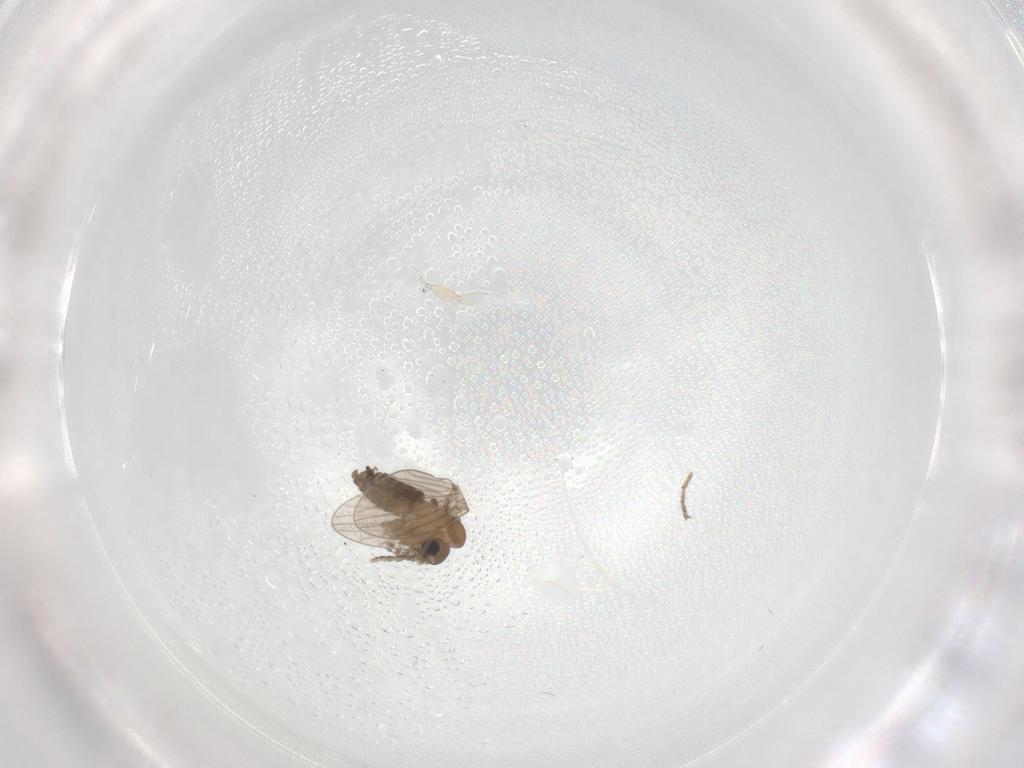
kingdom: Animalia
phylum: Arthropoda
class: Insecta
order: Diptera
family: Ceratopogonidae
